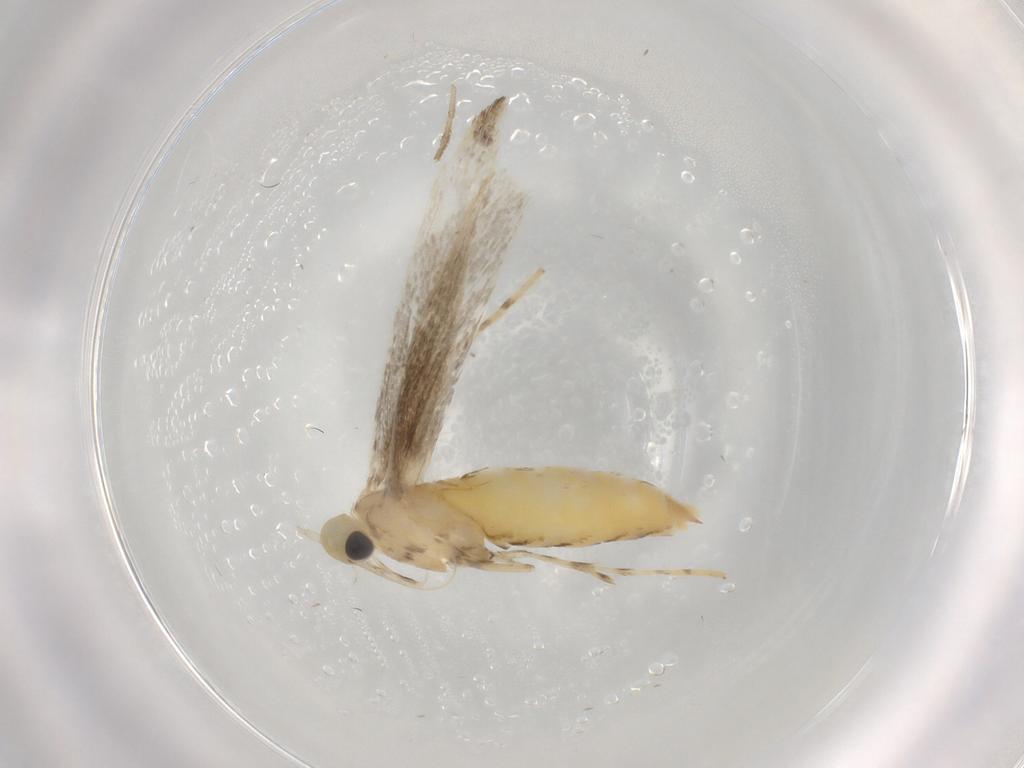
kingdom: Animalia
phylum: Arthropoda
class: Insecta
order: Lepidoptera
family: Gracillariidae
